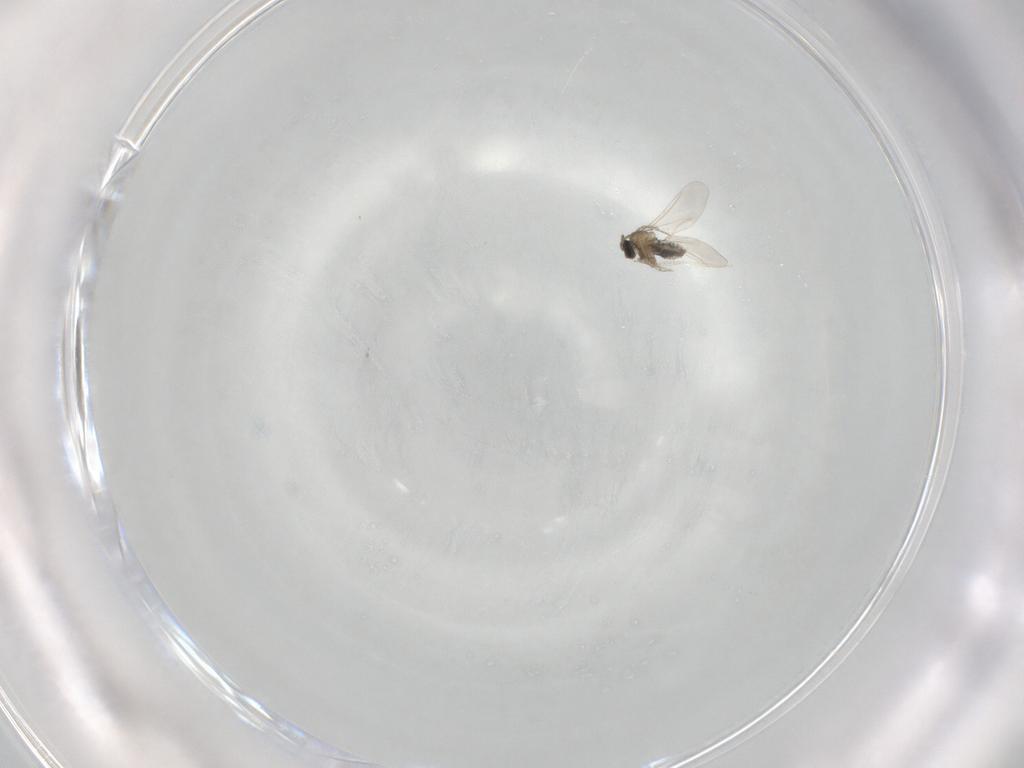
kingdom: Animalia
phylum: Arthropoda
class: Insecta
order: Diptera
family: Cecidomyiidae
